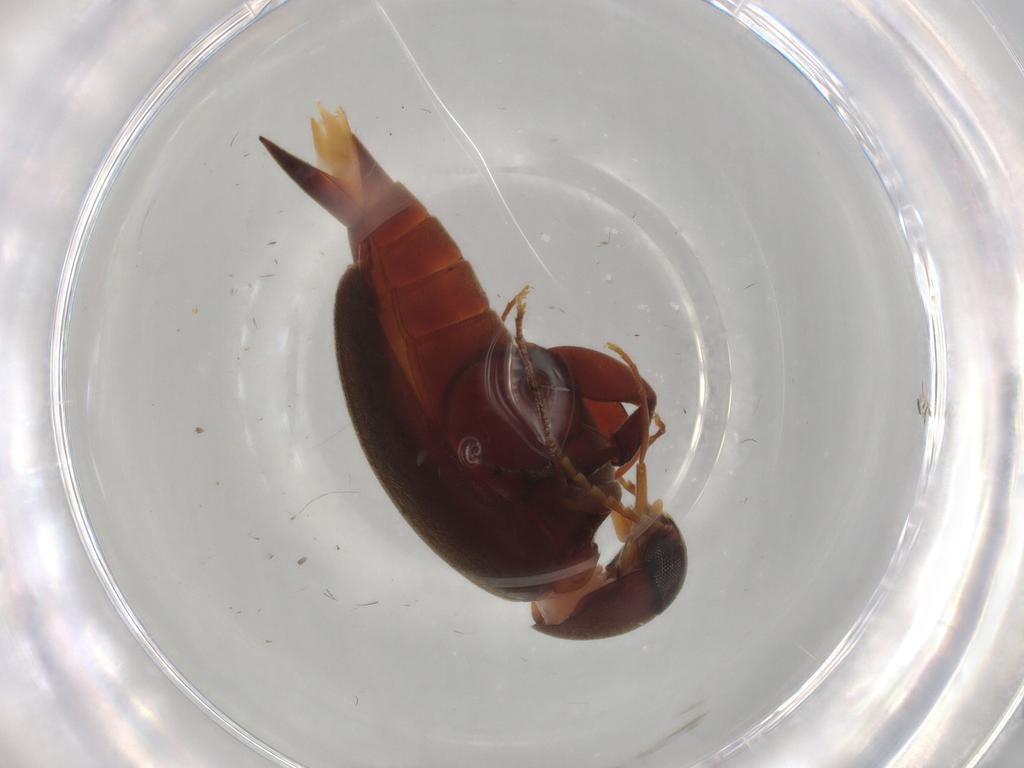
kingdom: Animalia
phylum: Arthropoda
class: Insecta
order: Coleoptera
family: Mordellidae
